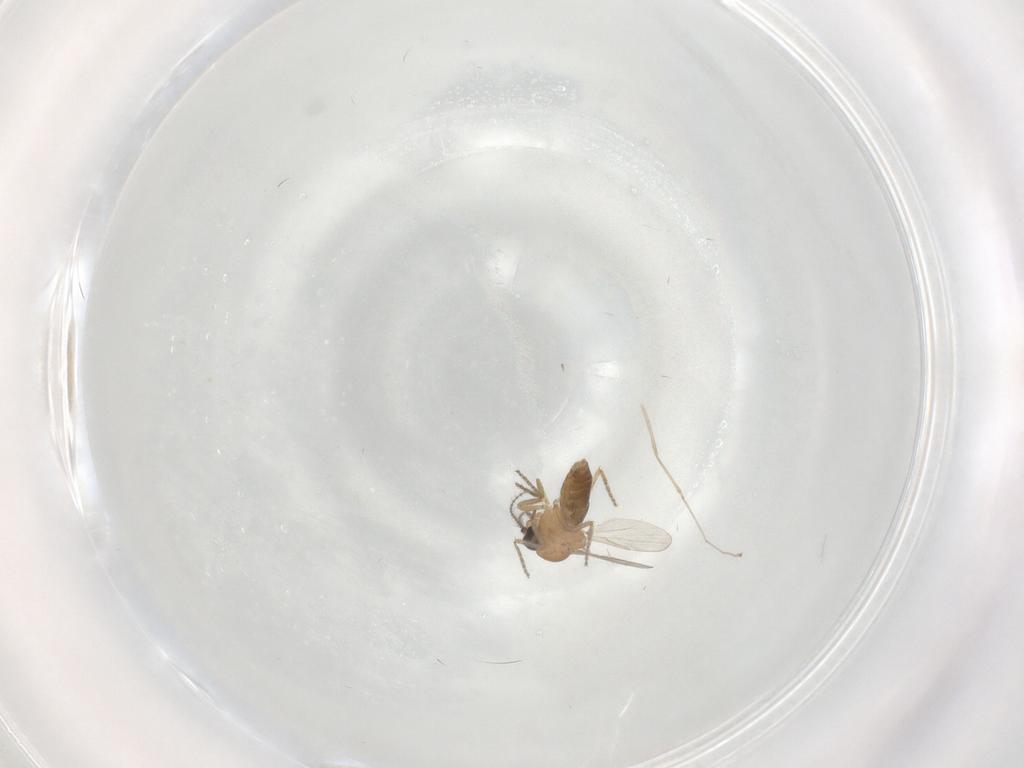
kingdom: Animalia
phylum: Arthropoda
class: Insecta
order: Diptera
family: Ceratopogonidae
